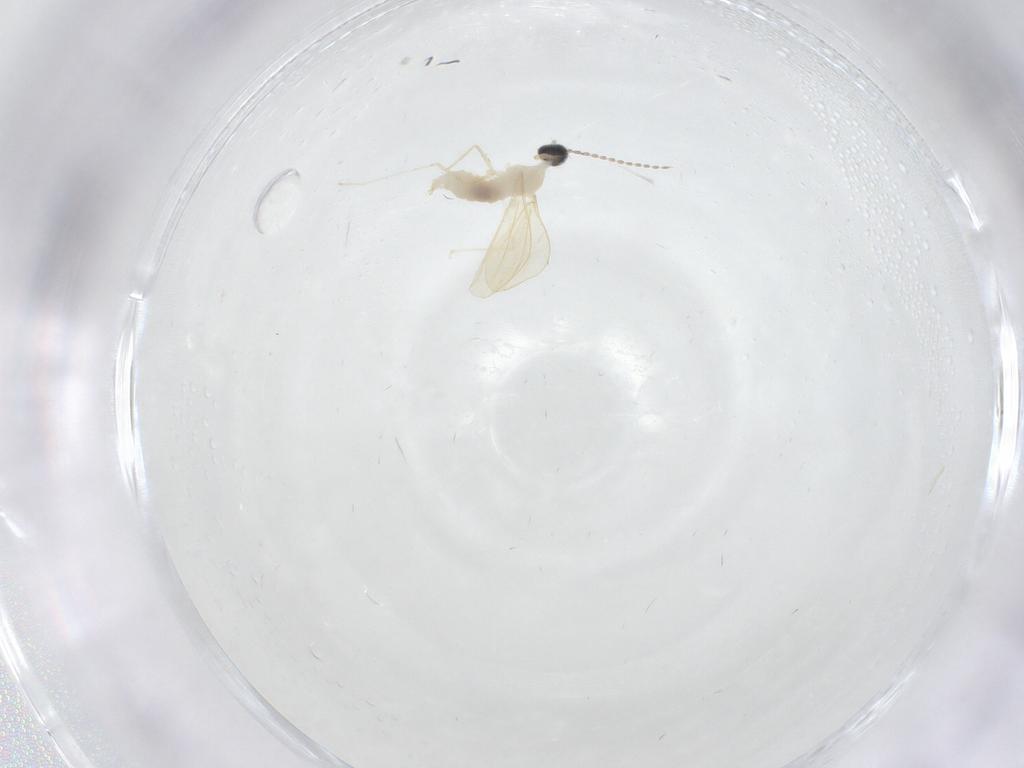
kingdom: Animalia
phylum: Arthropoda
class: Insecta
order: Diptera
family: Cecidomyiidae
